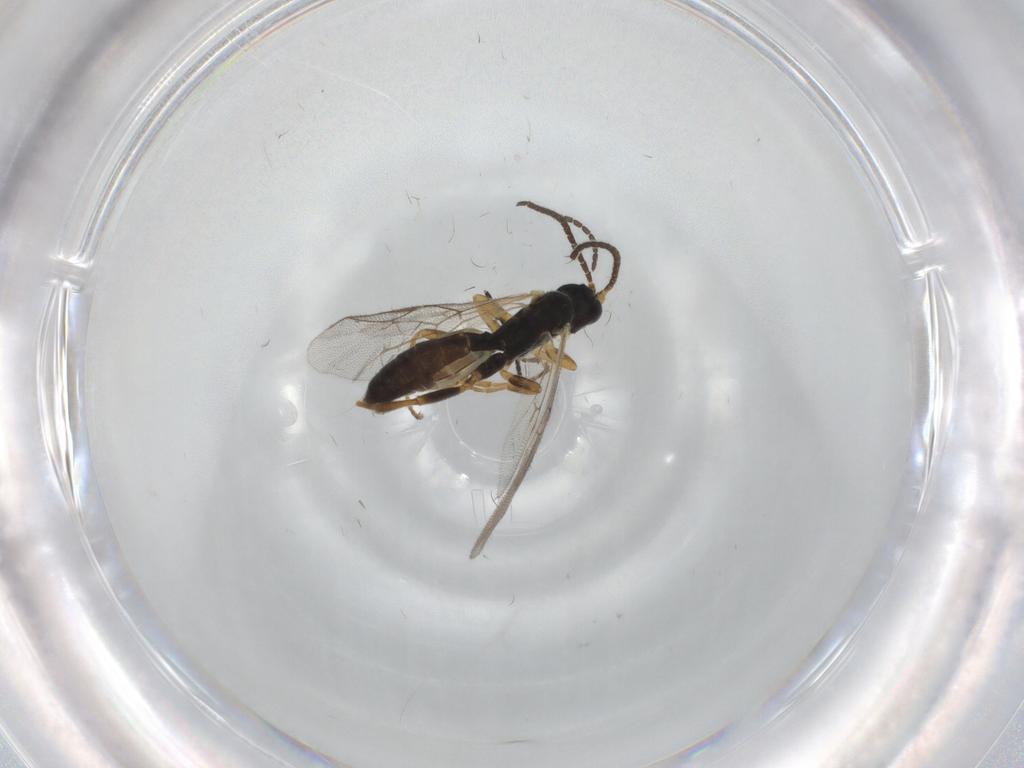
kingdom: Animalia
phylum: Arthropoda
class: Insecta
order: Hymenoptera
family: Ichneumonidae
